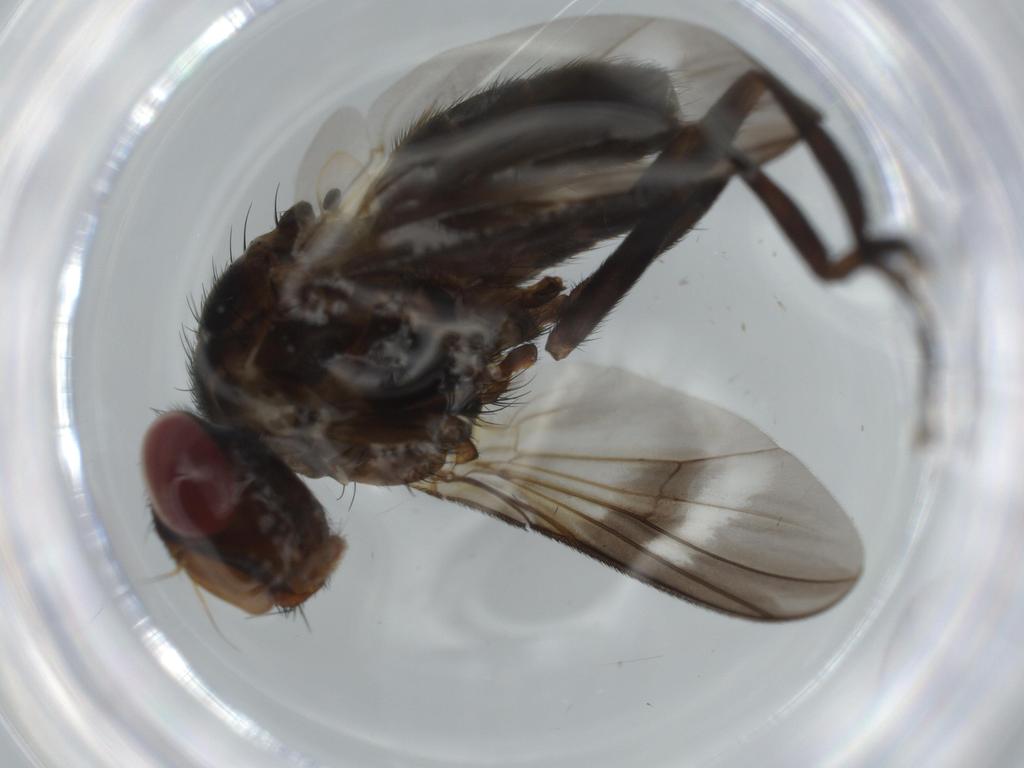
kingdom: Animalia
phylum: Arthropoda
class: Insecta
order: Diptera
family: Calliphoridae
